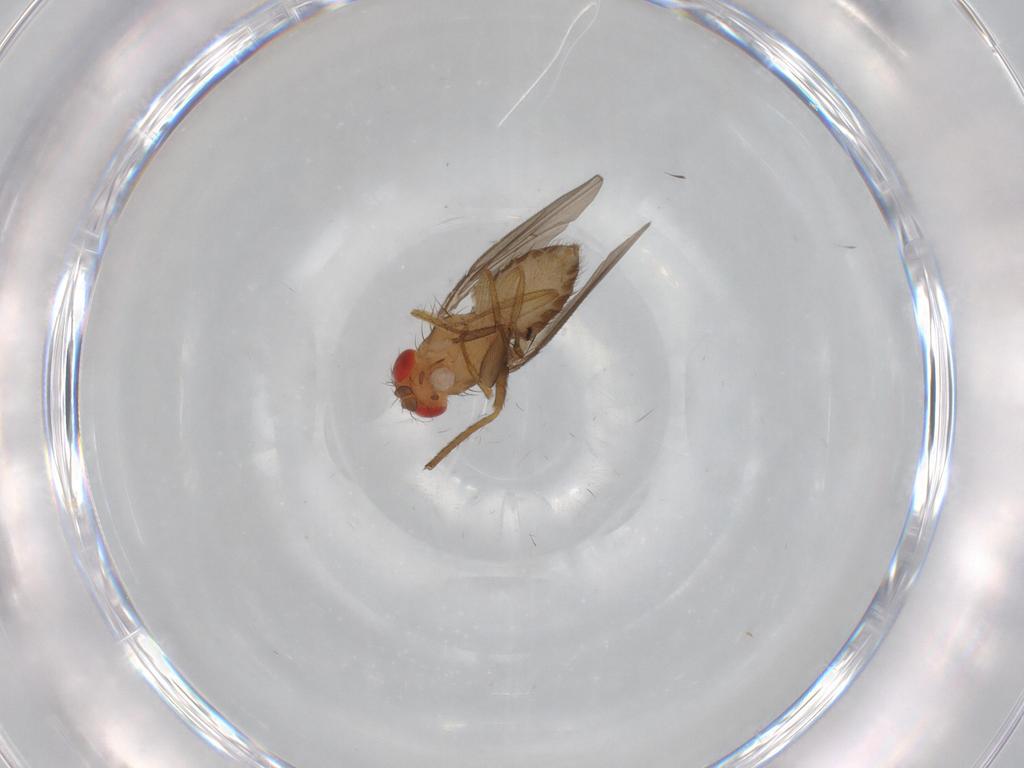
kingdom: Animalia
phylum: Arthropoda
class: Insecta
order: Diptera
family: Drosophilidae
